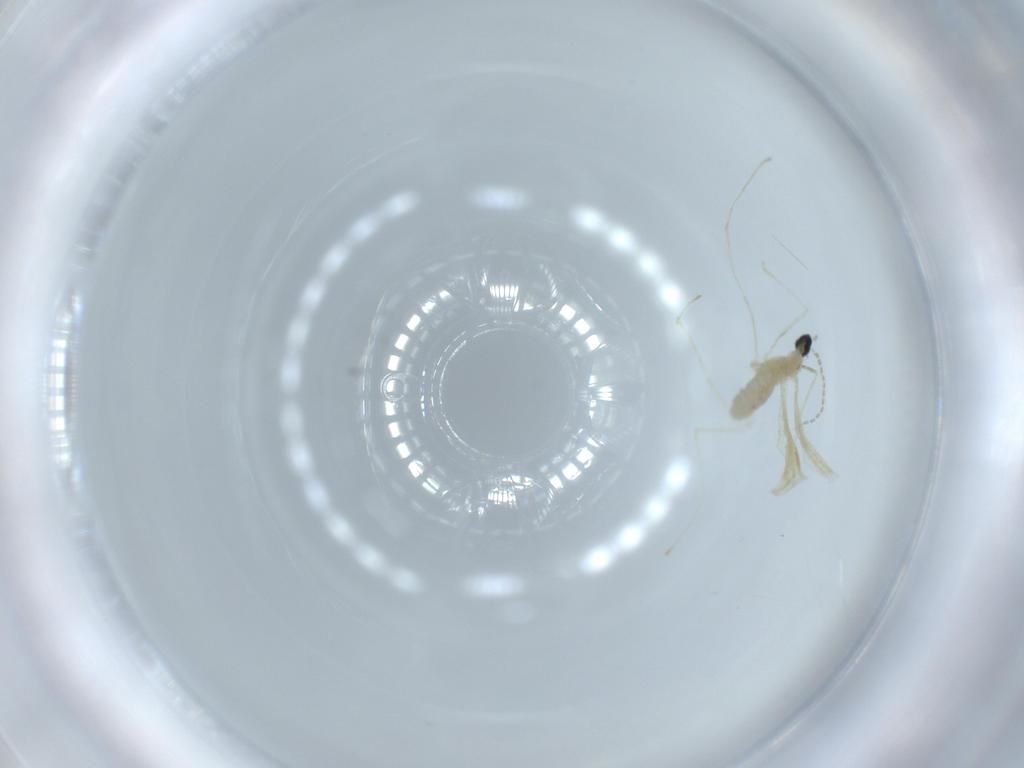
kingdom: Animalia
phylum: Arthropoda
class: Insecta
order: Diptera
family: Cecidomyiidae
